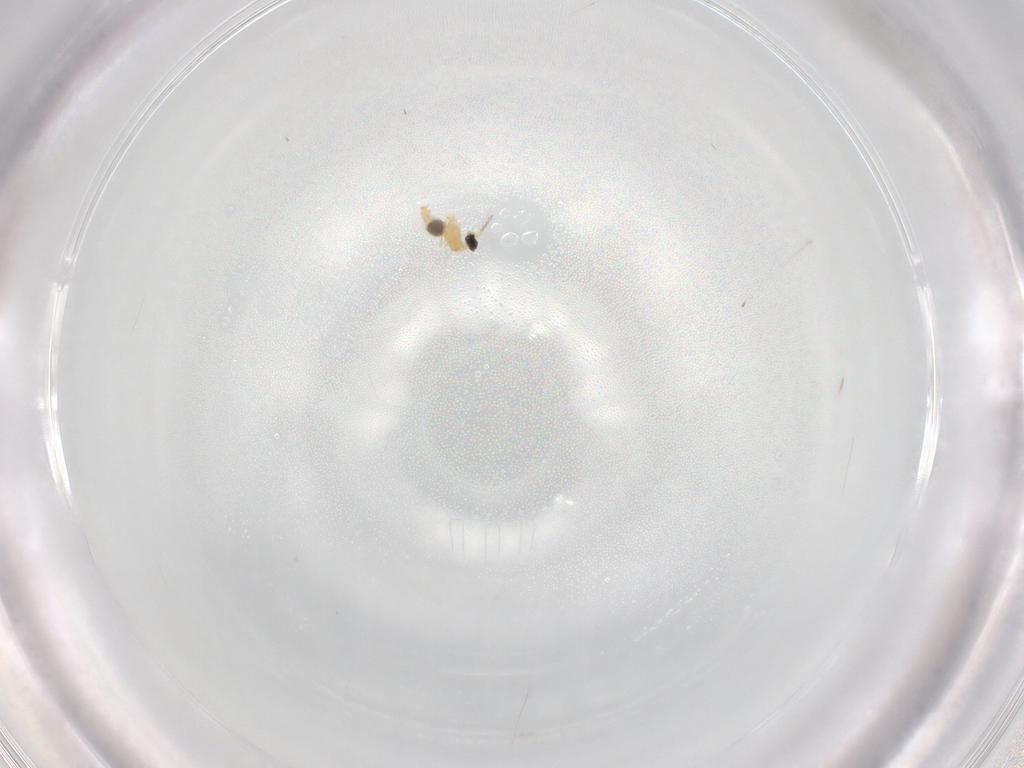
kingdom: Animalia
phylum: Arthropoda
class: Insecta
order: Diptera
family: Cecidomyiidae
